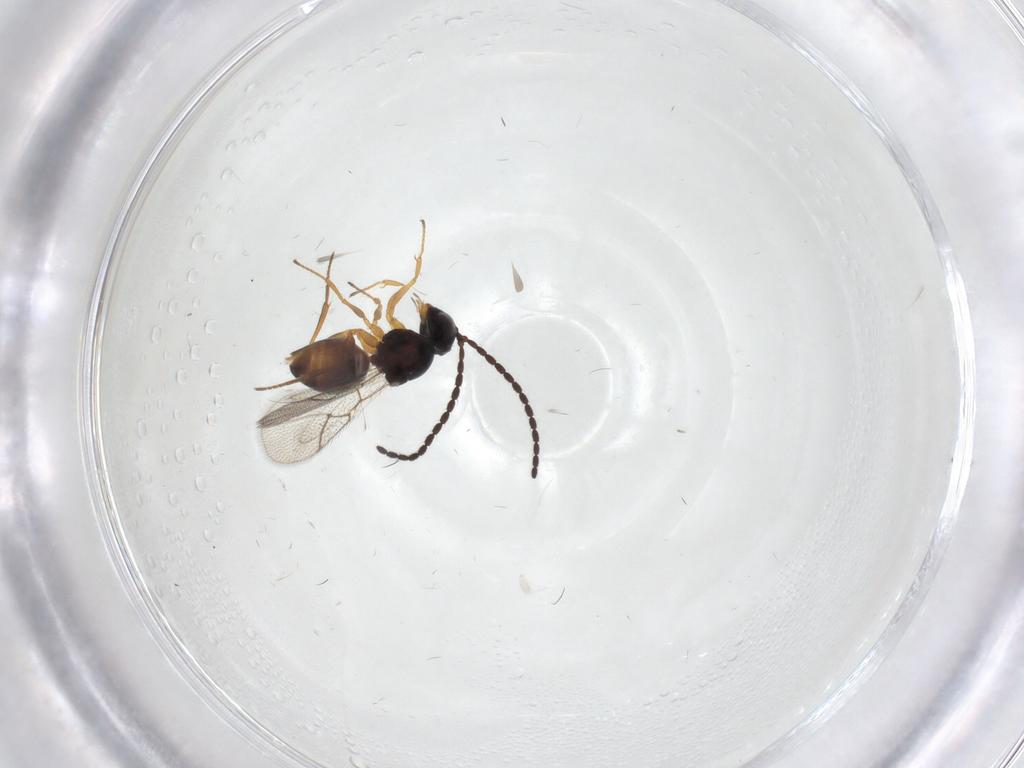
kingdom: Animalia
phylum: Arthropoda
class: Insecta
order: Hymenoptera
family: Figitidae
